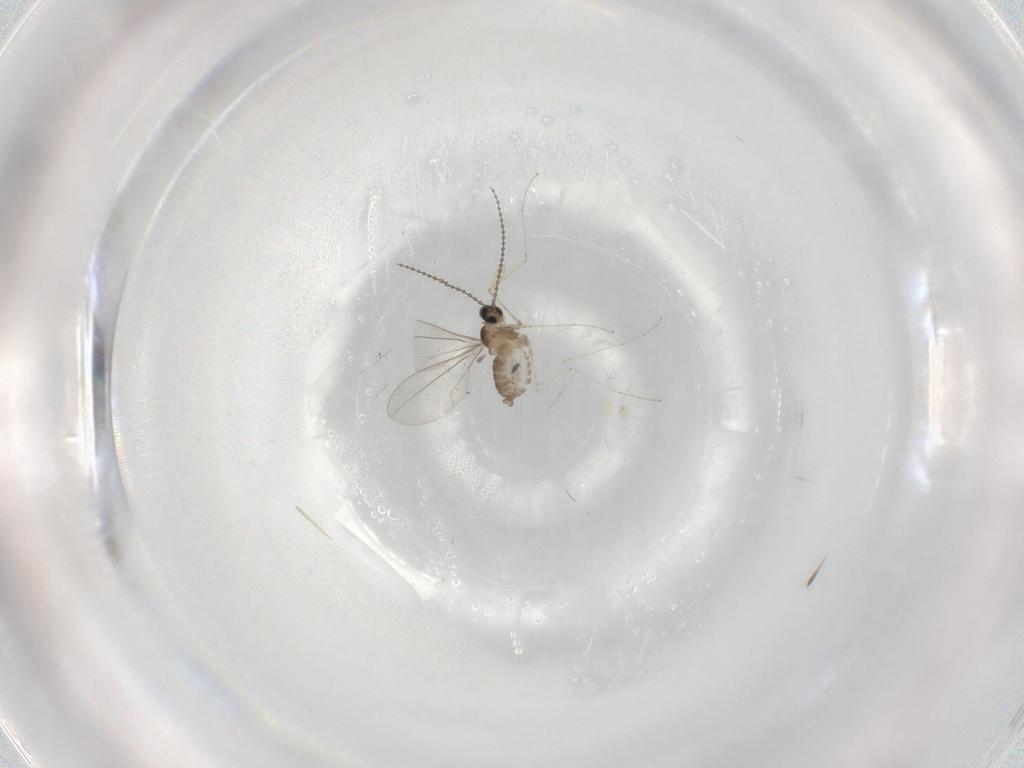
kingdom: Animalia
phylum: Arthropoda
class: Insecta
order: Diptera
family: Cecidomyiidae
